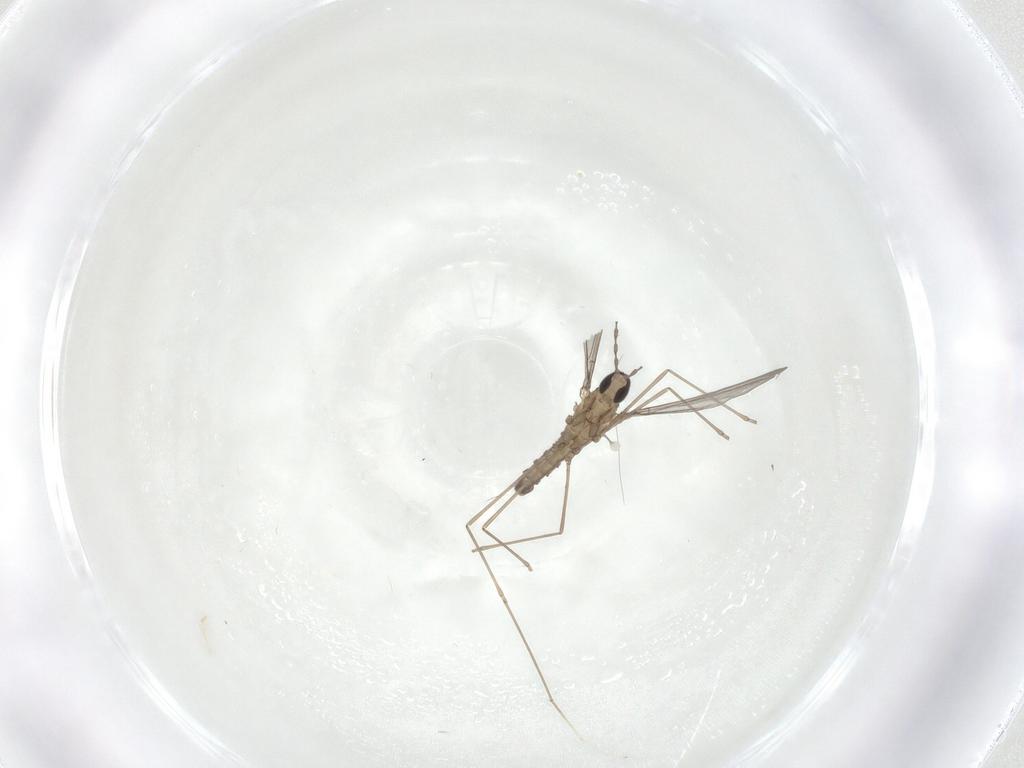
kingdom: Animalia
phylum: Arthropoda
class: Insecta
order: Diptera
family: Cecidomyiidae
